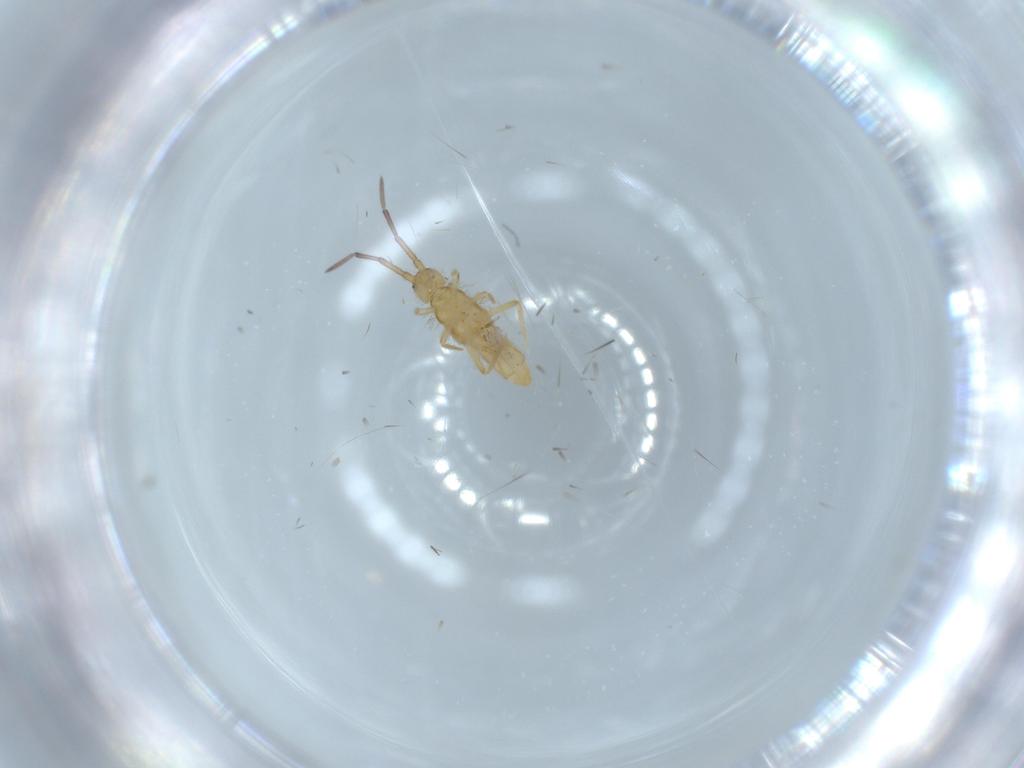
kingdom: Animalia
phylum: Arthropoda
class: Collembola
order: Entomobryomorpha
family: Entomobryidae
